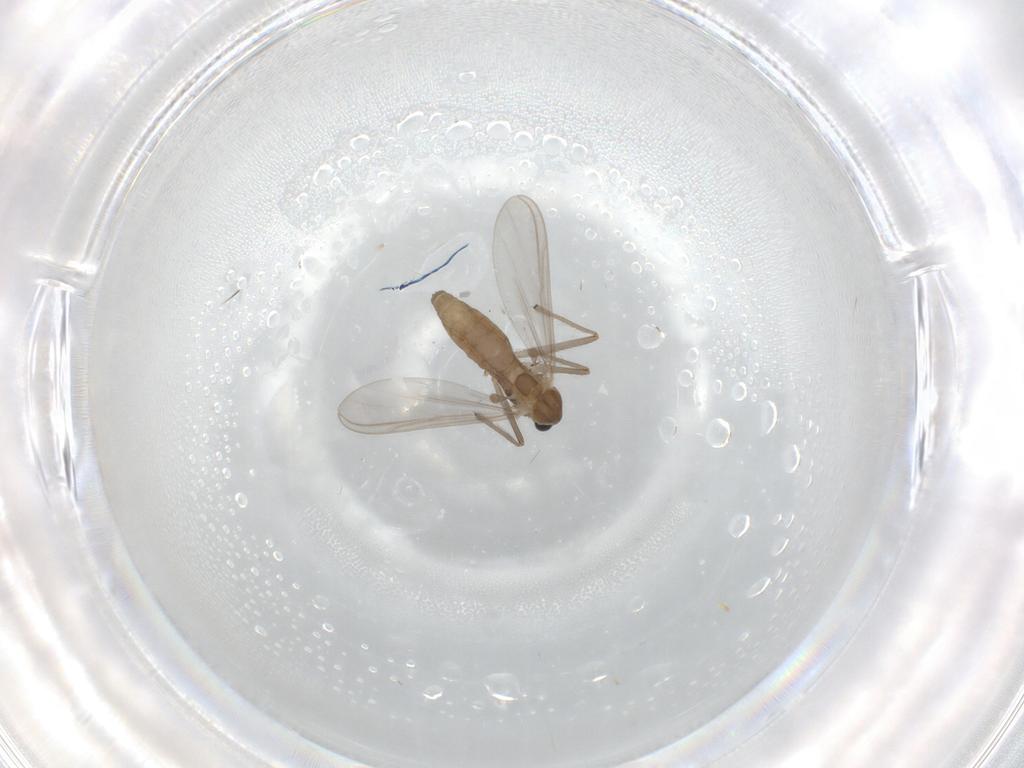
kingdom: Animalia
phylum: Arthropoda
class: Insecta
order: Diptera
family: Chironomidae
